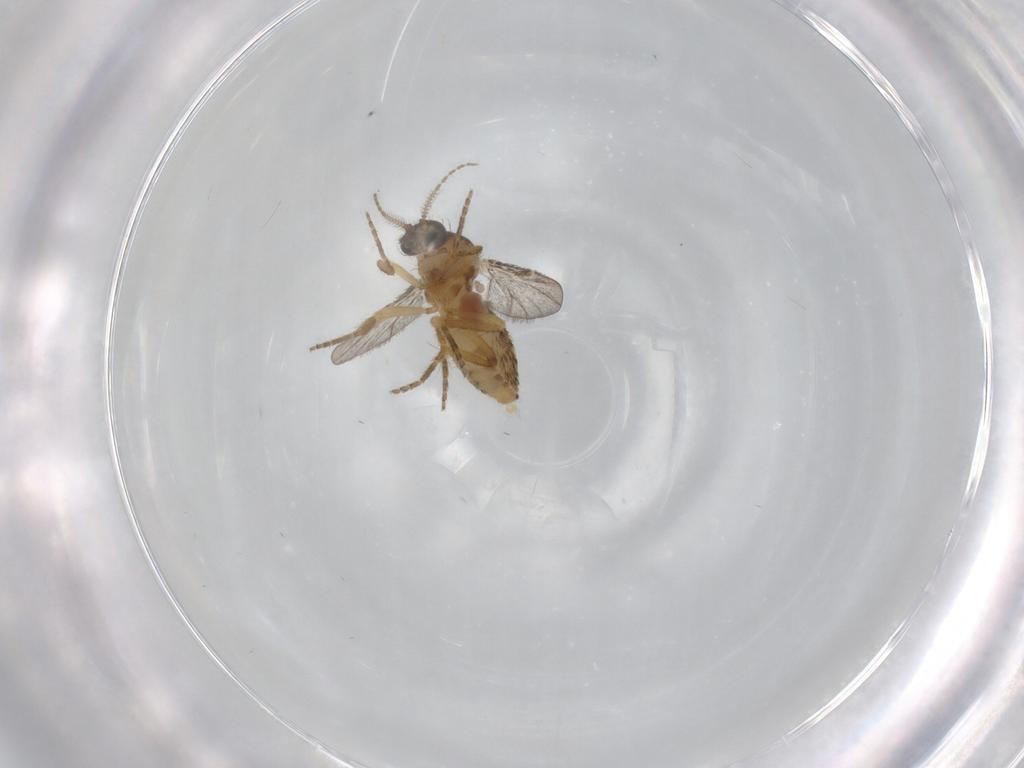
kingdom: Animalia
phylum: Arthropoda
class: Insecta
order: Diptera
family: Ceratopogonidae
